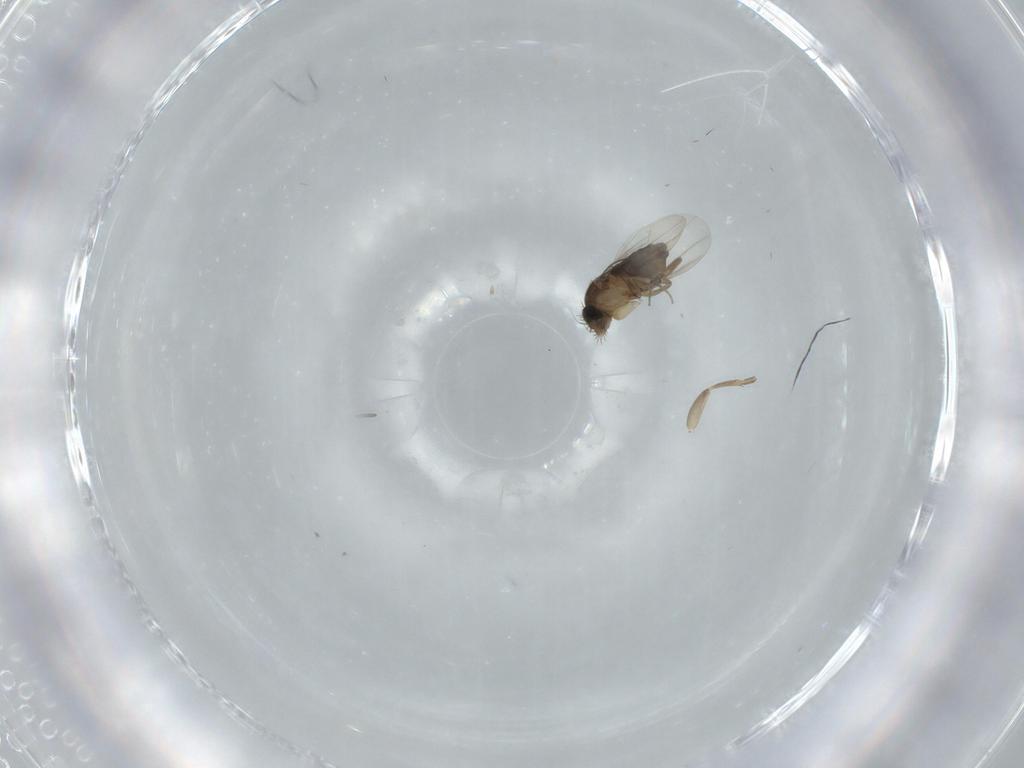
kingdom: Animalia
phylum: Arthropoda
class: Insecta
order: Diptera
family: Phoridae
